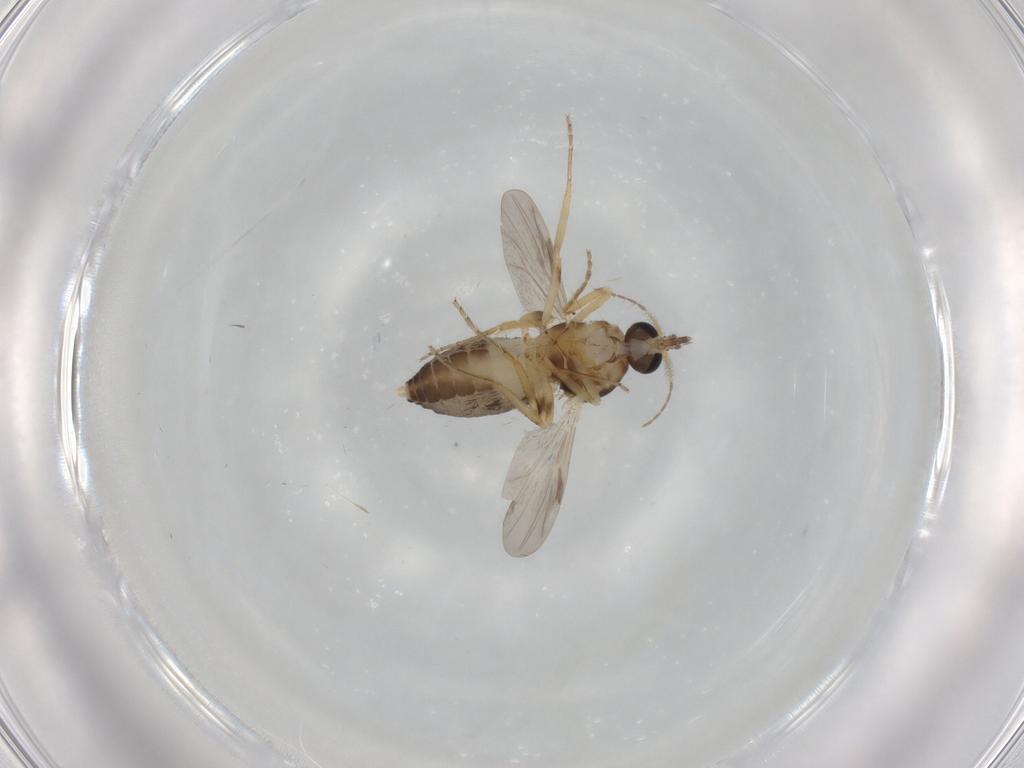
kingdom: Animalia
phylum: Arthropoda
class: Insecta
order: Diptera
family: Ceratopogonidae
